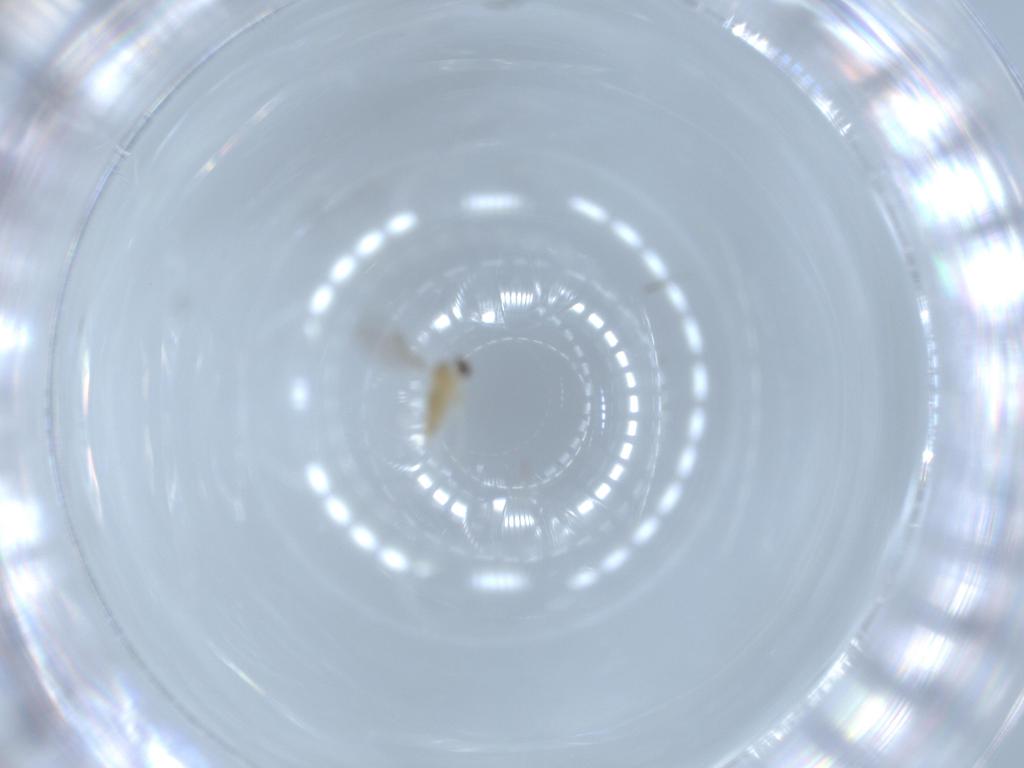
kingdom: Animalia
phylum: Arthropoda
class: Insecta
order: Diptera
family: Cecidomyiidae
